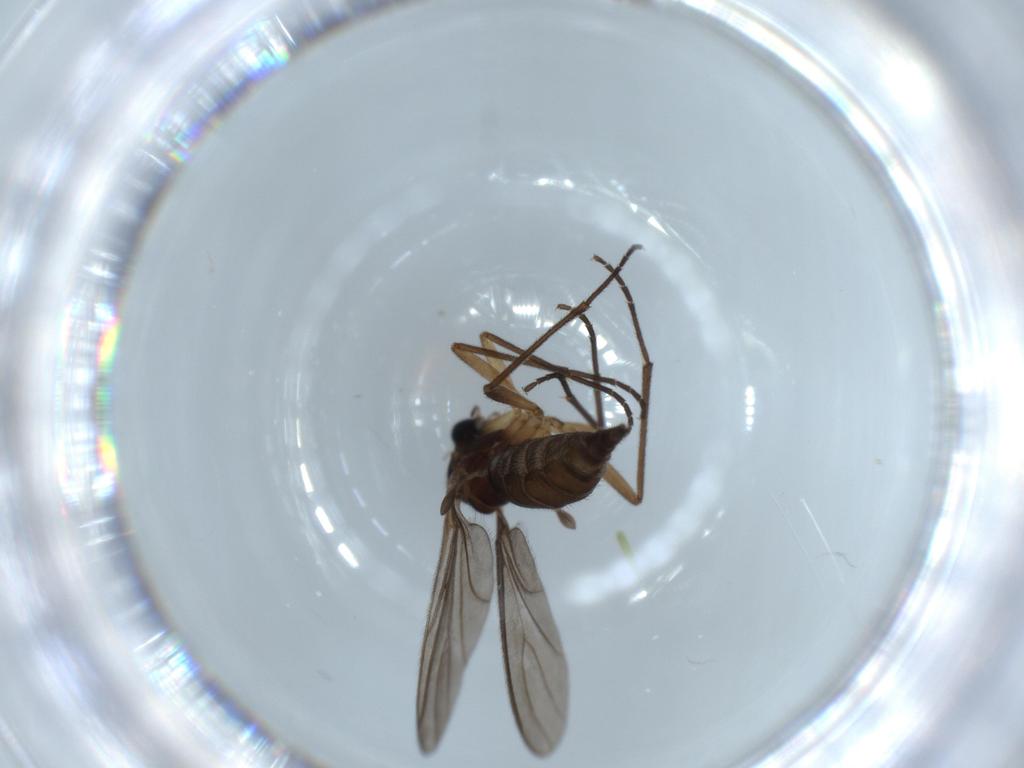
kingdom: Animalia
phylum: Arthropoda
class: Insecta
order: Diptera
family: Sciaridae
